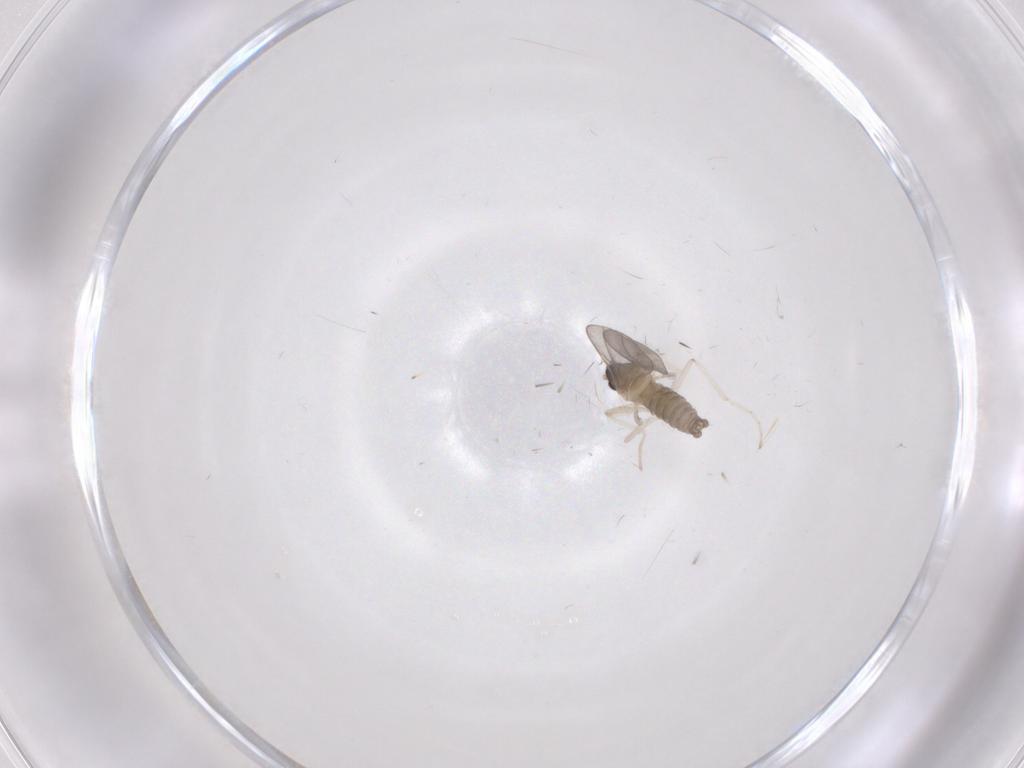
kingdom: Animalia
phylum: Arthropoda
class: Insecta
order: Diptera
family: Cecidomyiidae
